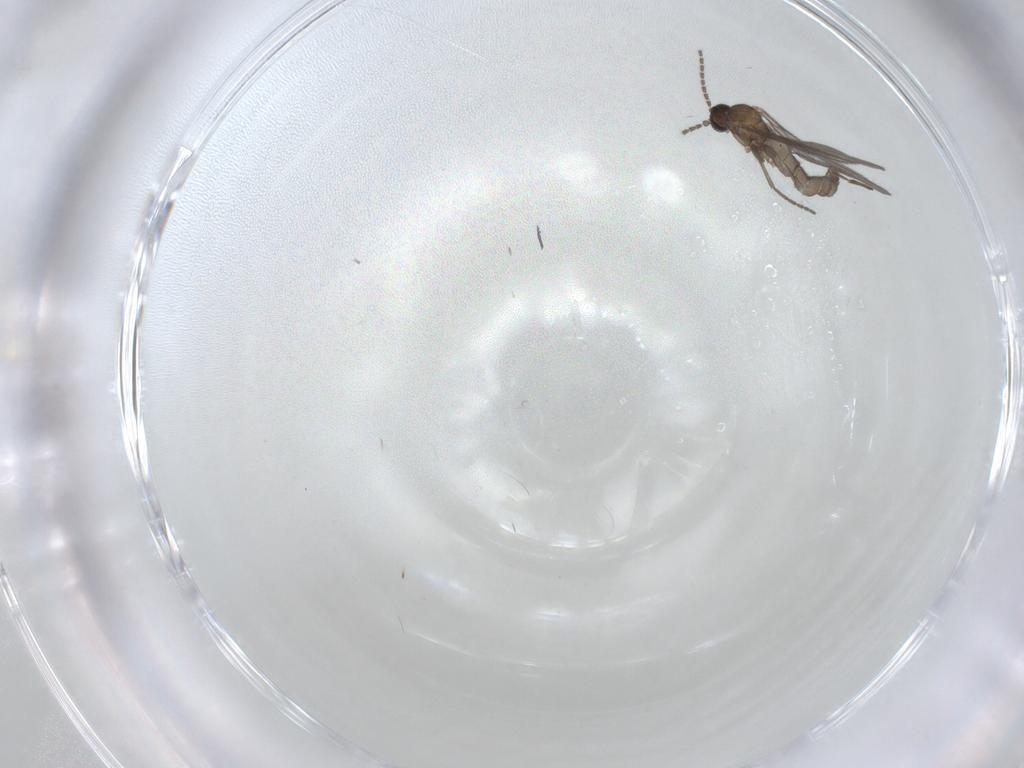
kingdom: Animalia
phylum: Arthropoda
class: Insecta
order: Diptera
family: Sciaridae
